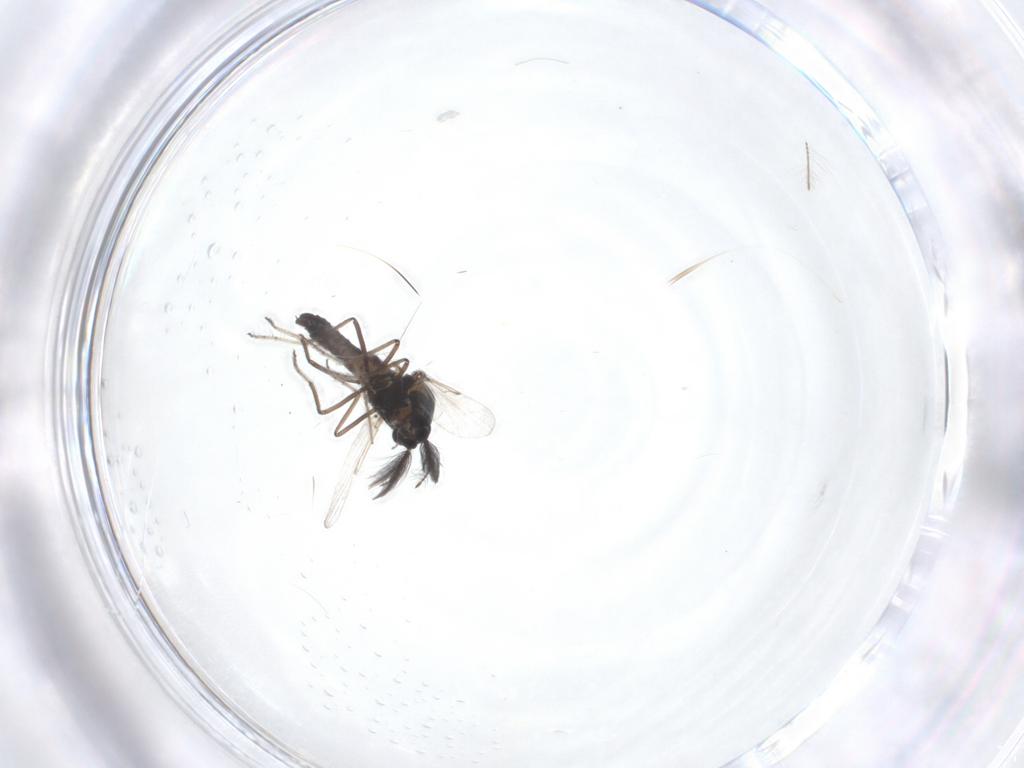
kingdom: Animalia
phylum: Arthropoda
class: Insecta
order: Diptera
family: Ceratopogonidae
